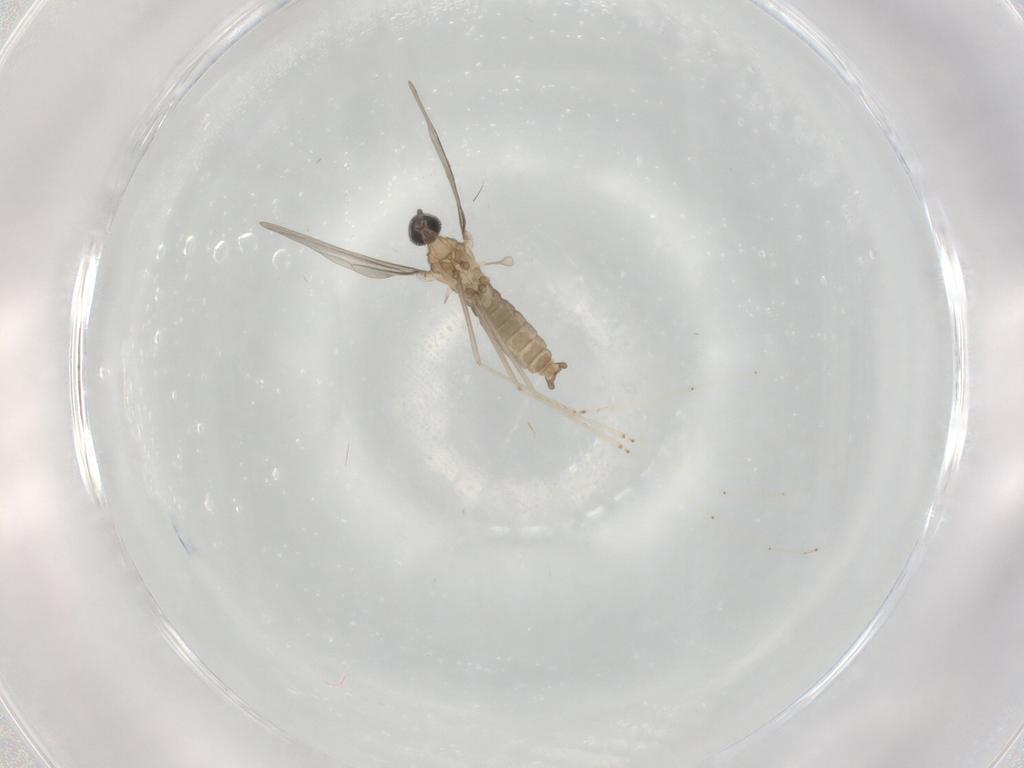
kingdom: Animalia
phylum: Arthropoda
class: Insecta
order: Diptera
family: Cecidomyiidae
